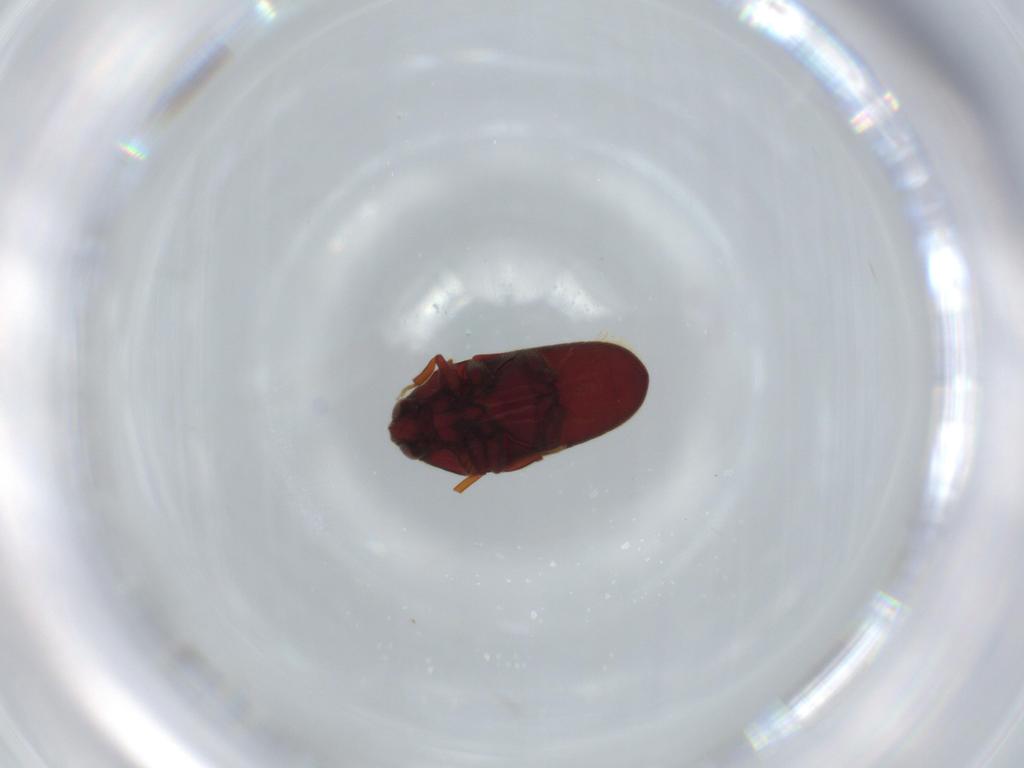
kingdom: Animalia
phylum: Arthropoda
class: Insecta
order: Coleoptera
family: Throscidae
